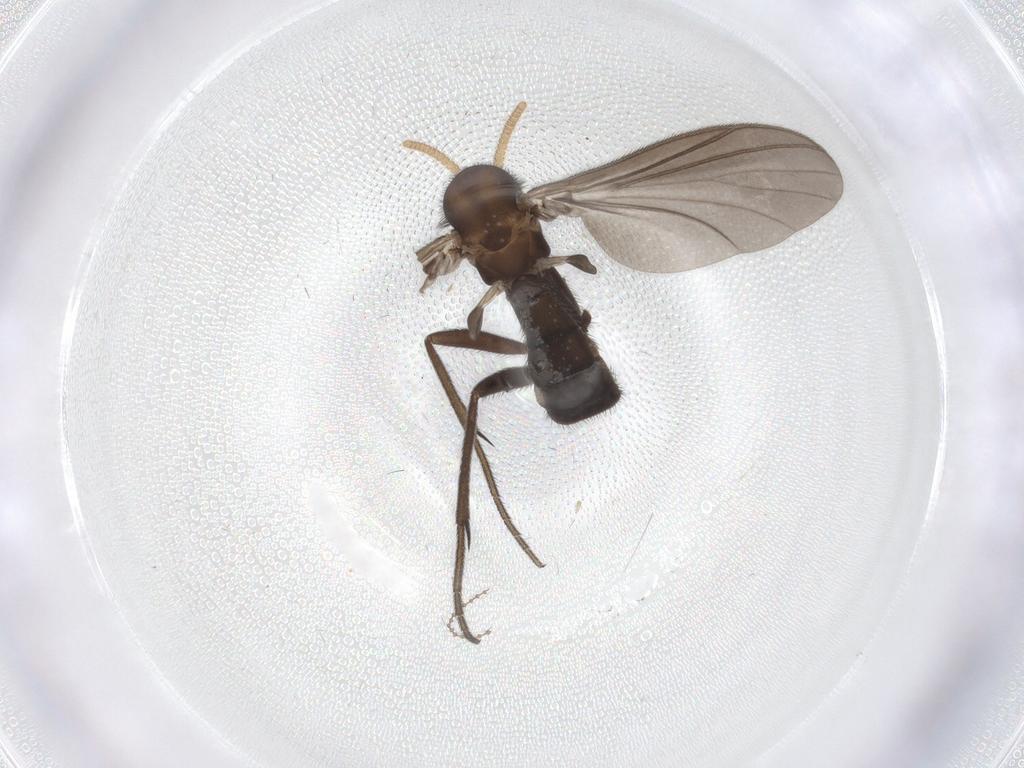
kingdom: Animalia
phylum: Arthropoda
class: Insecta
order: Diptera
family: Mycetophilidae
